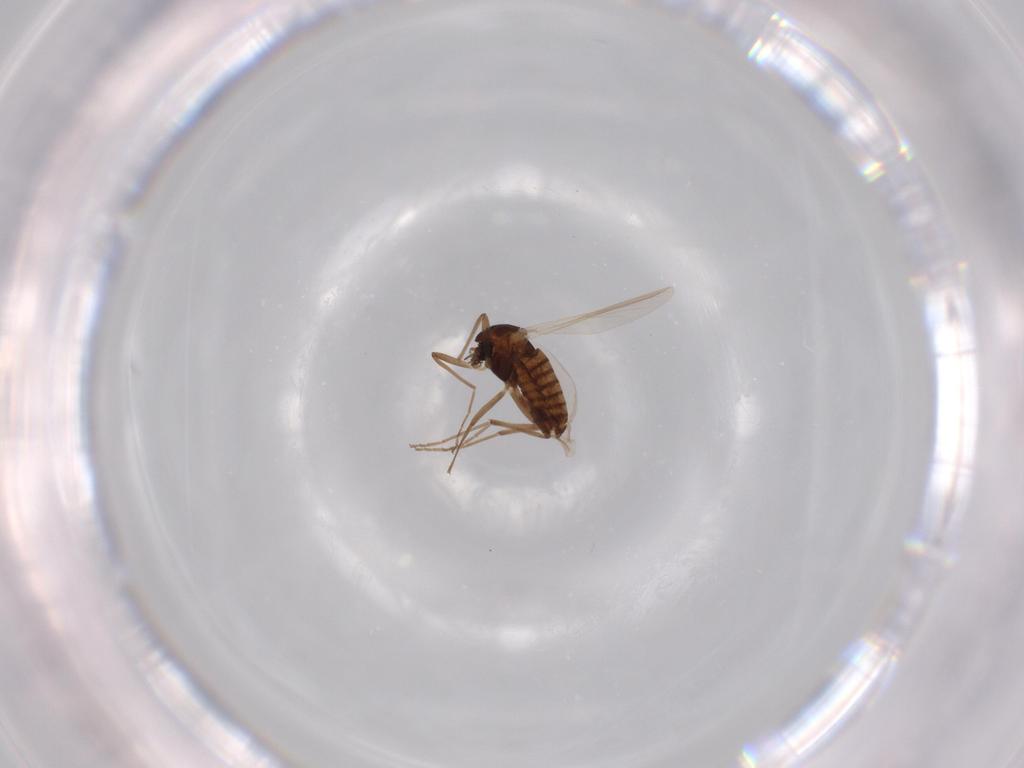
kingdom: Animalia
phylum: Arthropoda
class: Insecta
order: Diptera
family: Chironomidae
